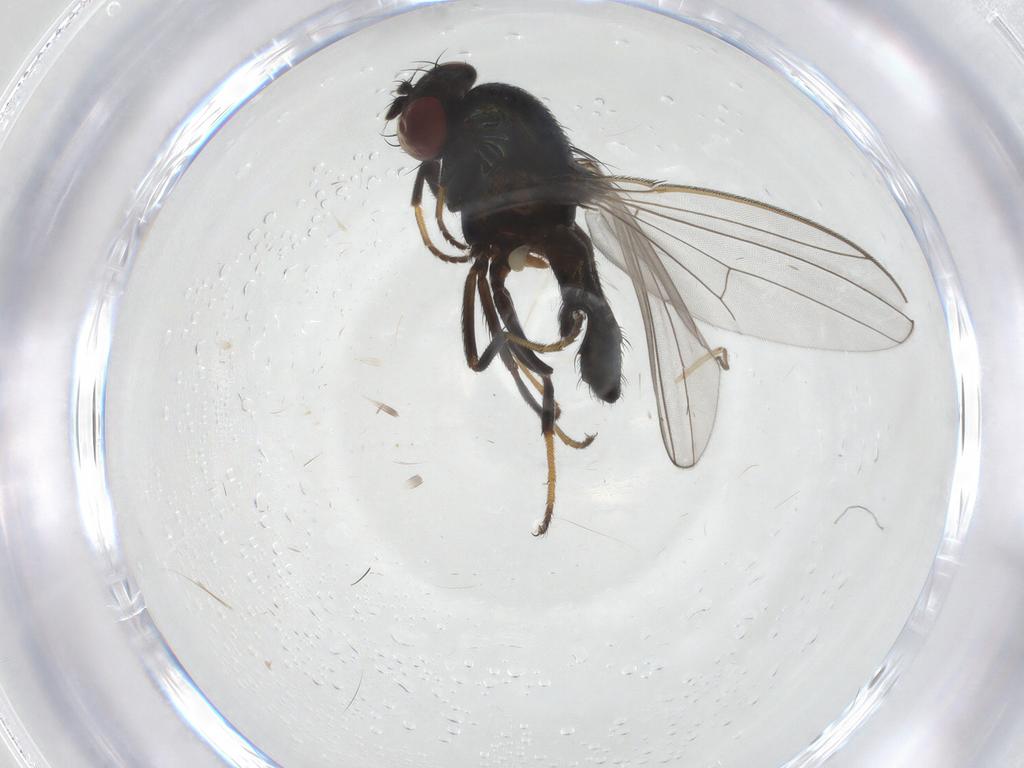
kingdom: Animalia
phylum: Arthropoda
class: Insecta
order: Diptera
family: Chironomidae
